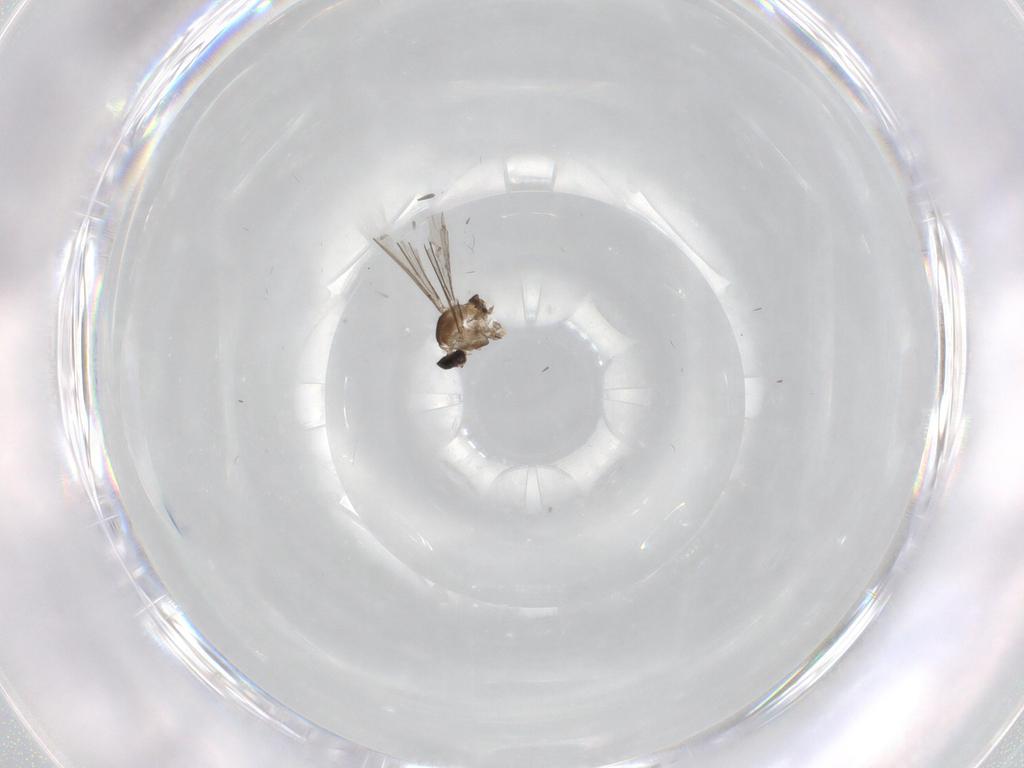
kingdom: Animalia
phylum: Arthropoda
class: Insecta
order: Diptera
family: Cecidomyiidae
